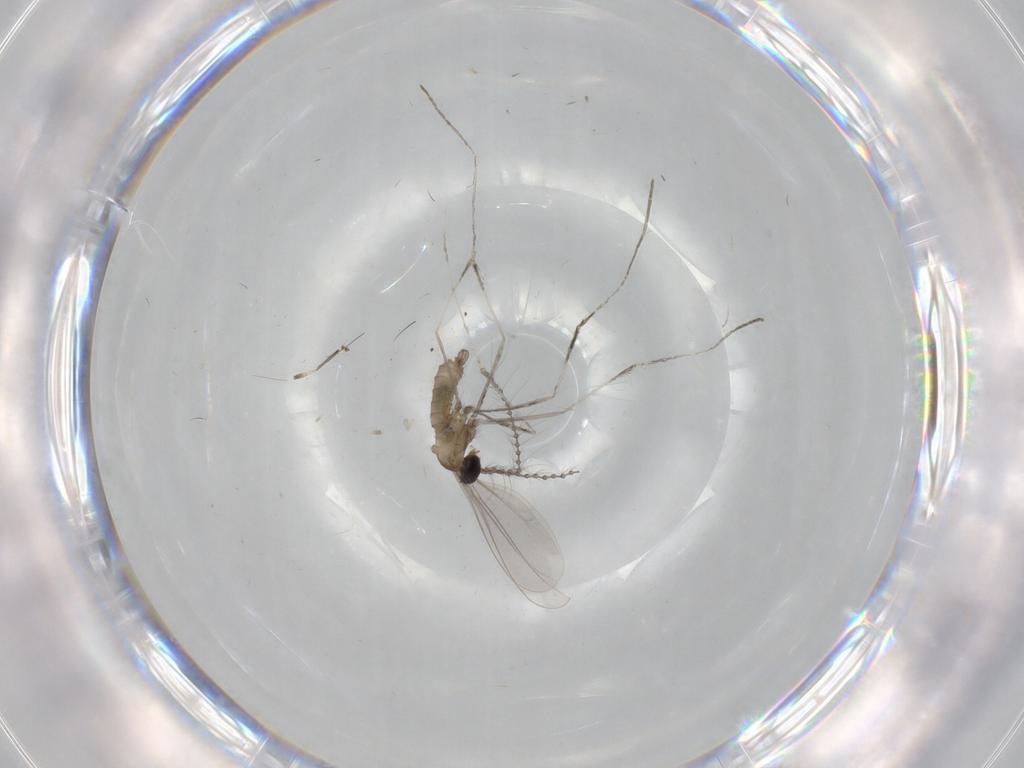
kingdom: Animalia
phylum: Arthropoda
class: Insecta
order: Diptera
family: Cecidomyiidae
